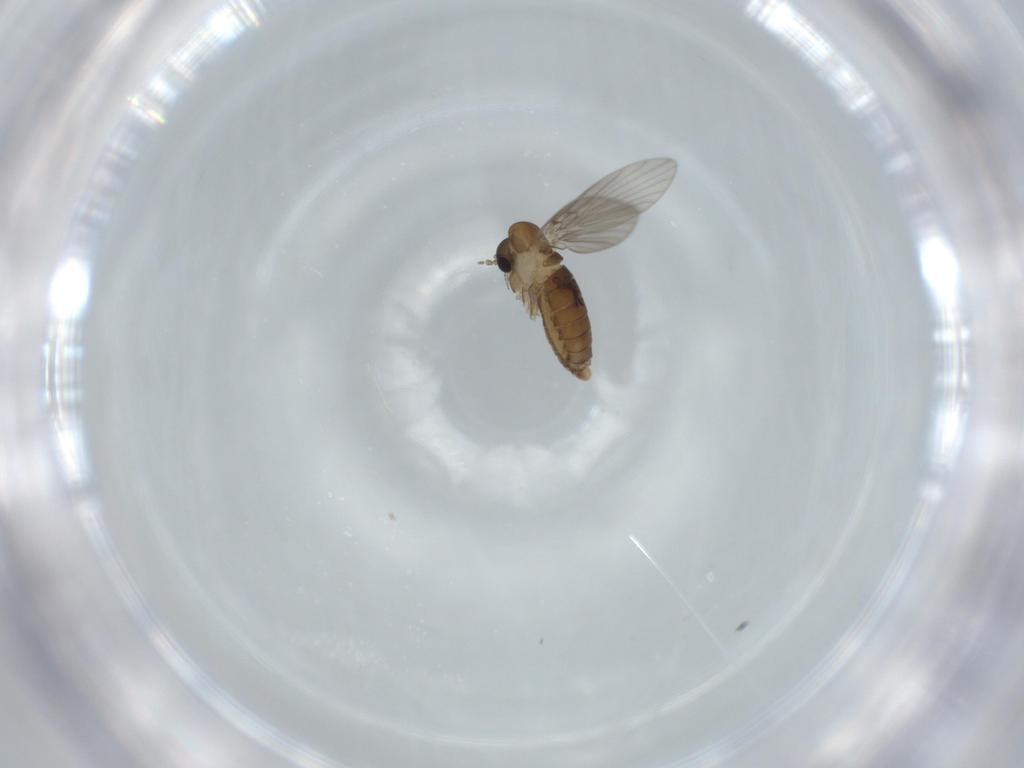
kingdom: Animalia
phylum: Arthropoda
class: Insecta
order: Diptera
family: Psychodidae
